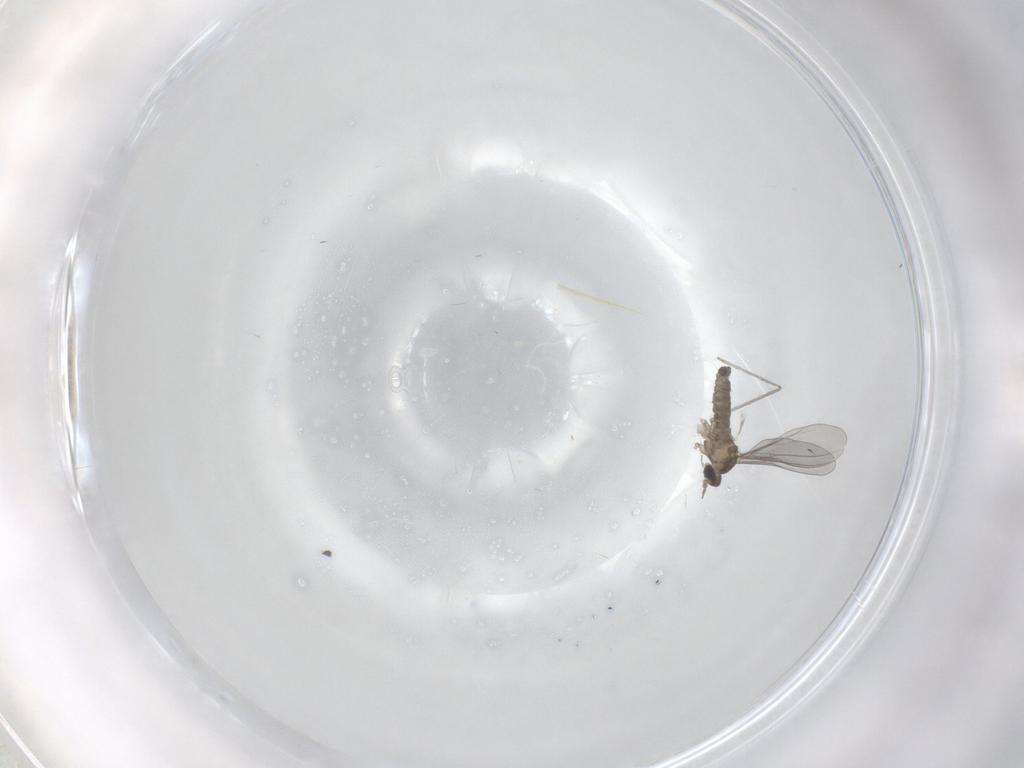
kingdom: Animalia
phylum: Arthropoda
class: Insecta
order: Diptera
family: Cecidomyiidae
